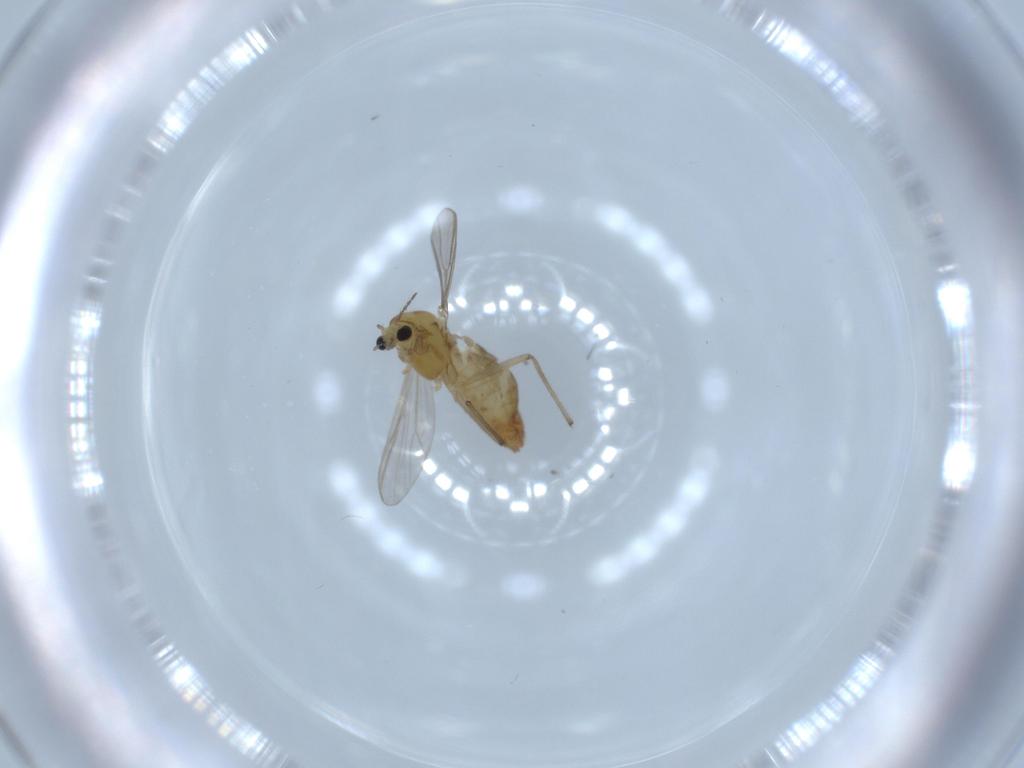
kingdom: Animalia
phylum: Arthropoda
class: Insecta
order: Diptera
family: Chironomidae
